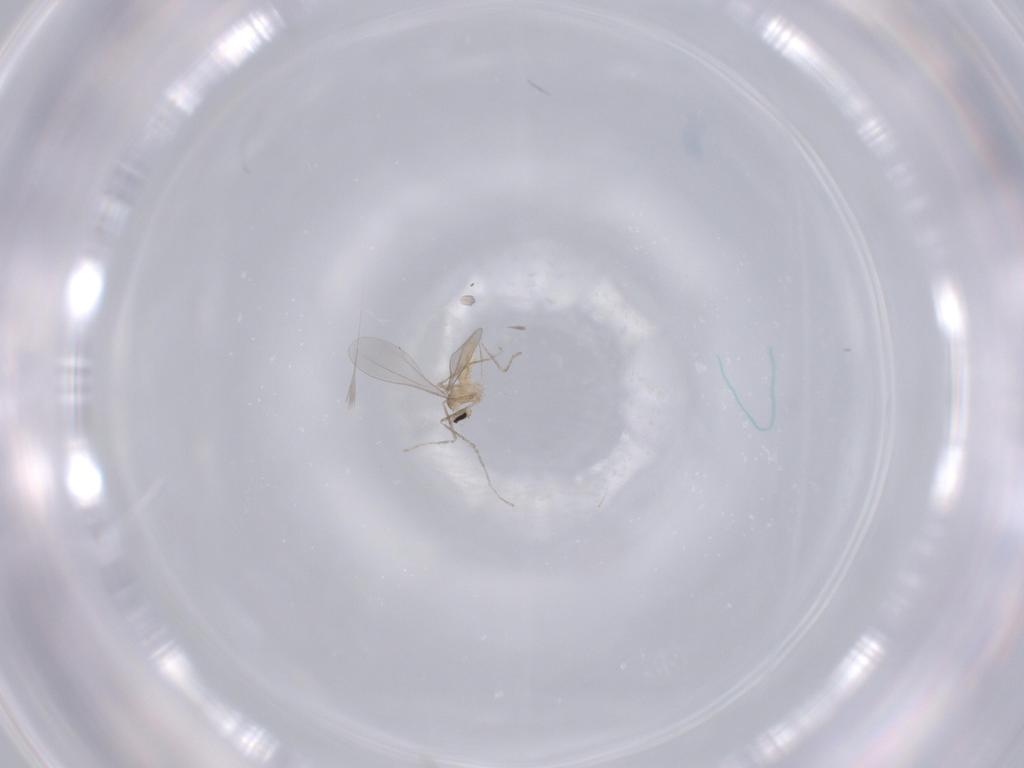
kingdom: Animalia
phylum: Arthropoda
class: Insecta
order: Diptera
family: Cecidomyiidae
